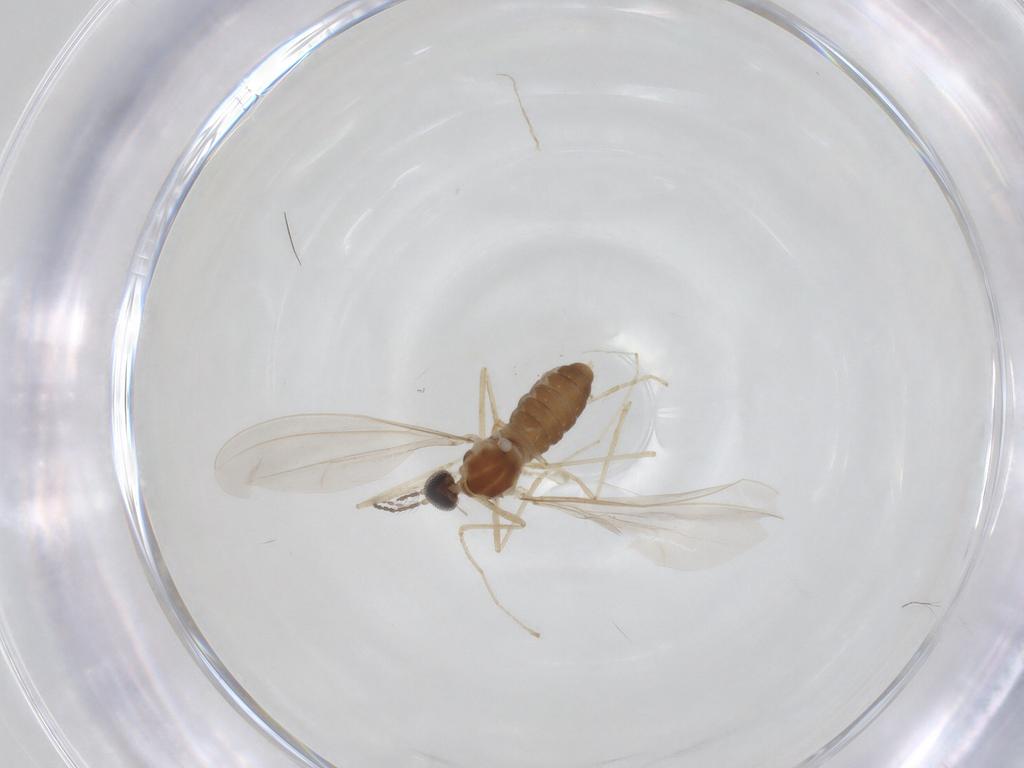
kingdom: Animalia
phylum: Arthropoda
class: Insecta
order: Diptera
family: Cecidomyiidae
